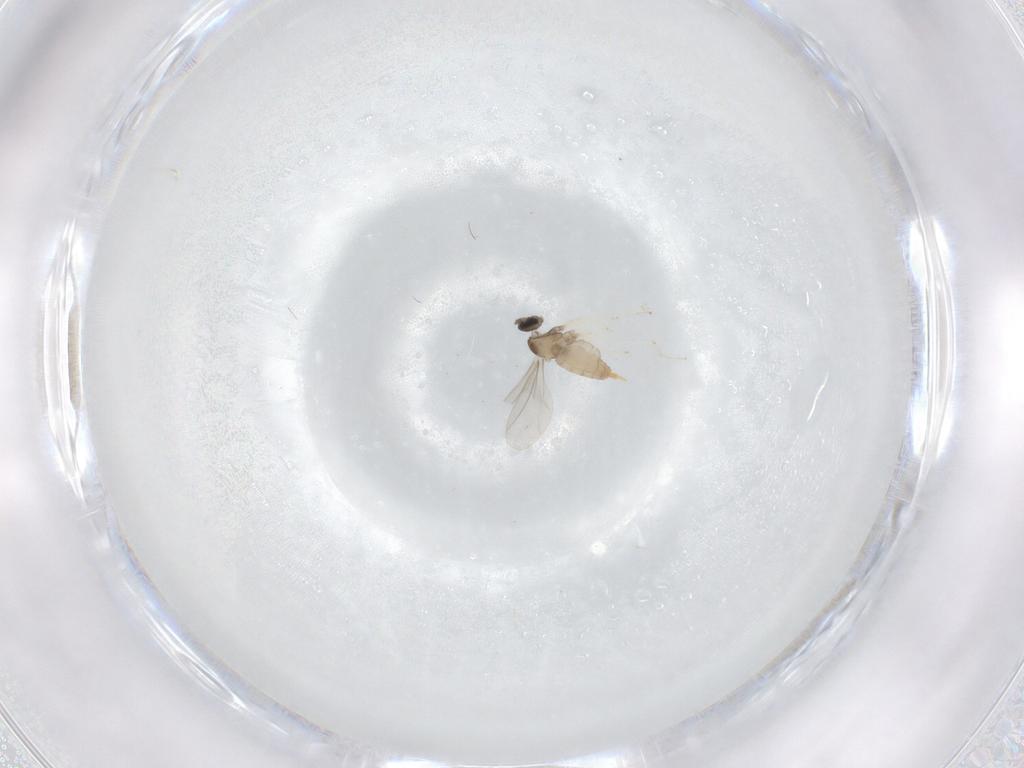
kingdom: Animalia
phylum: Arthropoda
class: Insecta
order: Diptera
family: Cecidomyiidae
